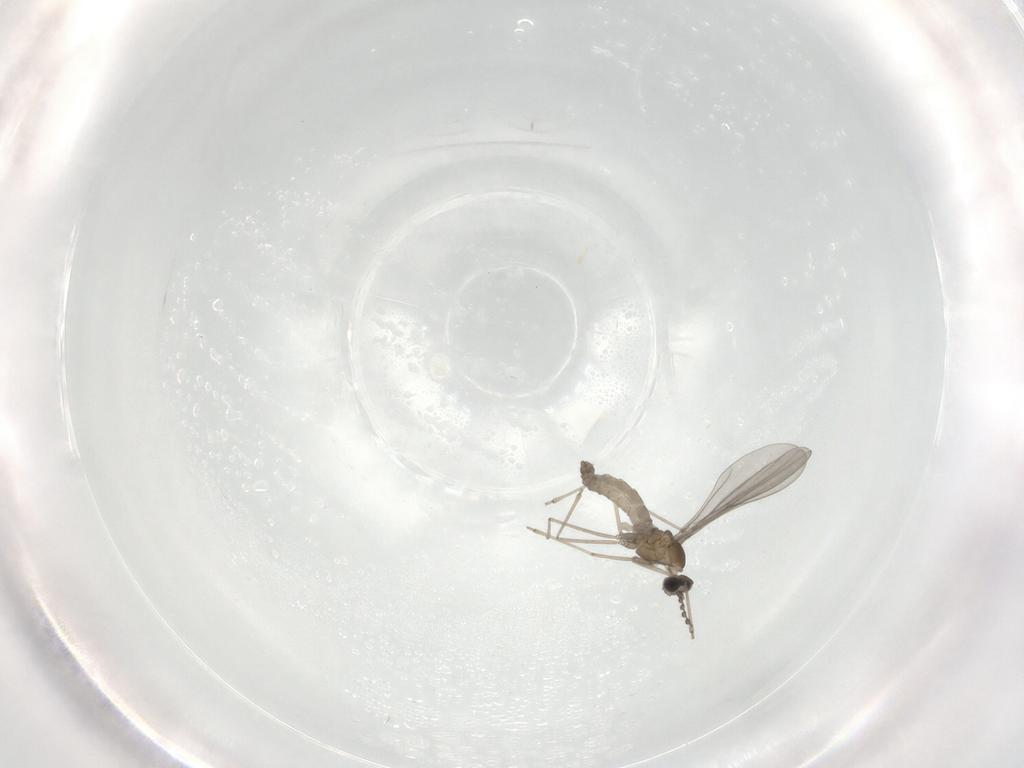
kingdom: Animalia
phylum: Arthropoda
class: Insecta
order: Diptera
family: Cecidomyiidae
